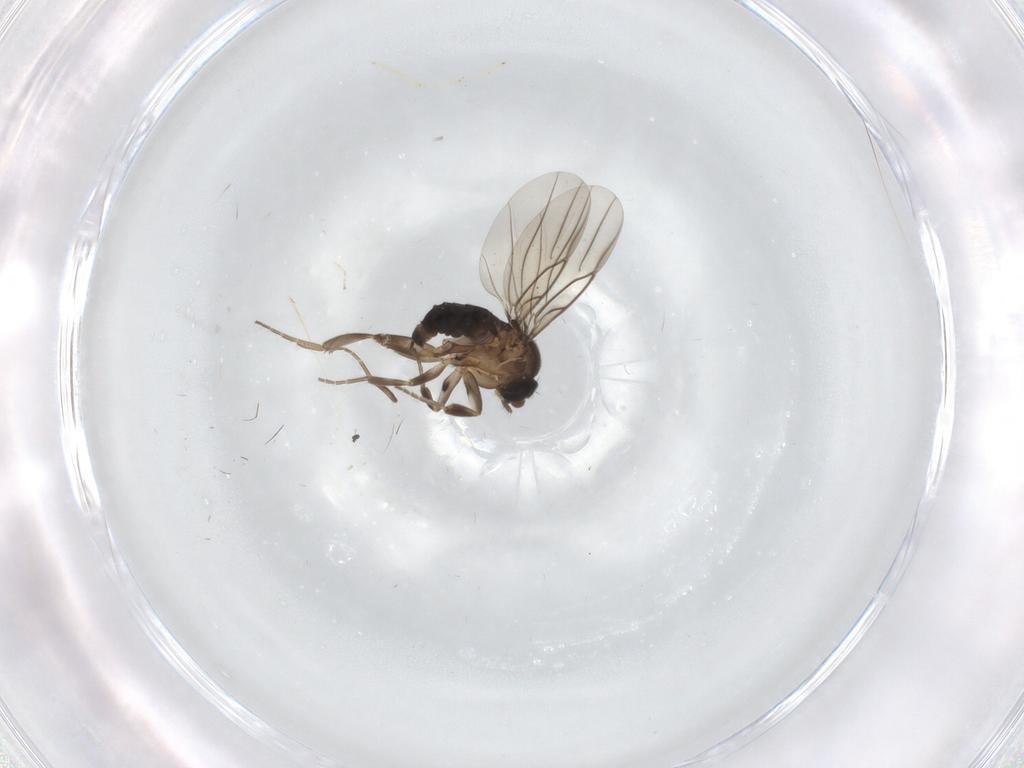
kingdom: Animalia
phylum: Arthropoda
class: Insecta
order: Diptera
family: Phoridae
